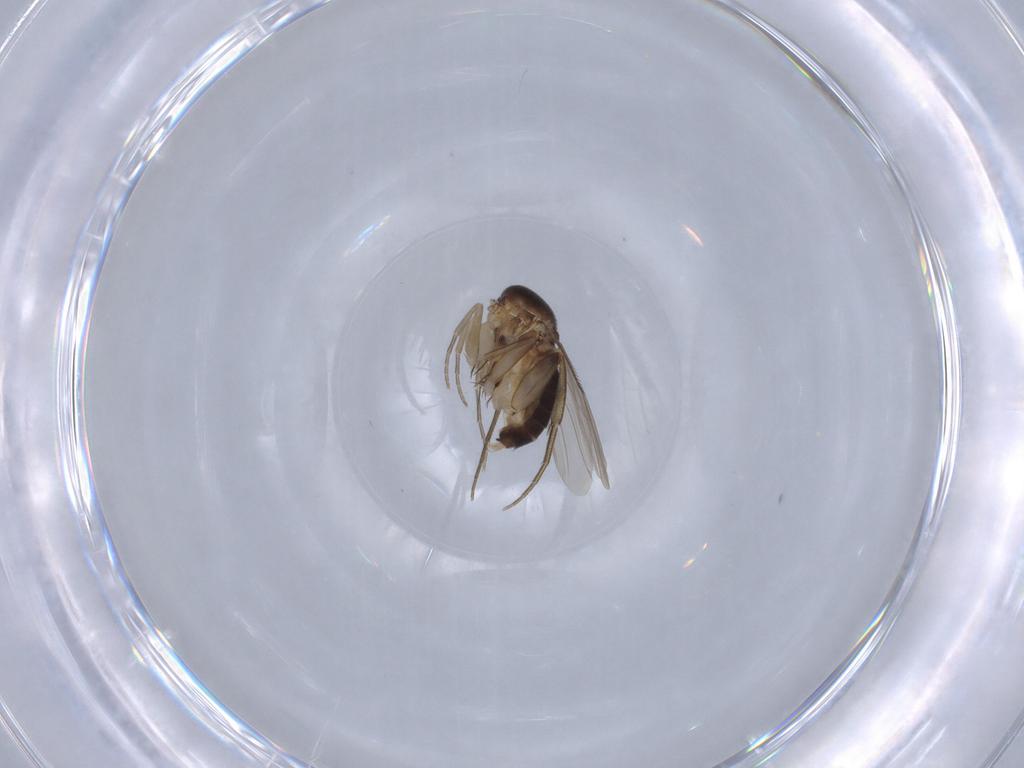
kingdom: Animalia
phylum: Arthropoda
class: Insecta
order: Diptera
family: Phoridae
